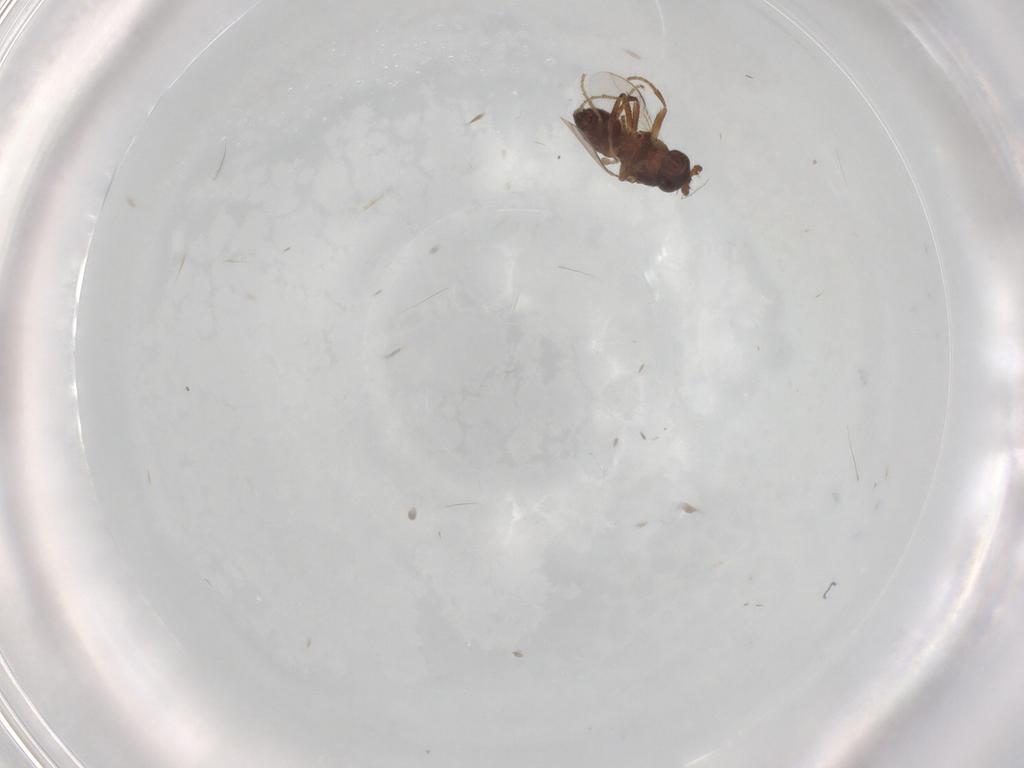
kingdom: Animalia
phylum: Arthropoda
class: Insecta
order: Diptera
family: Sphaeroceridae
